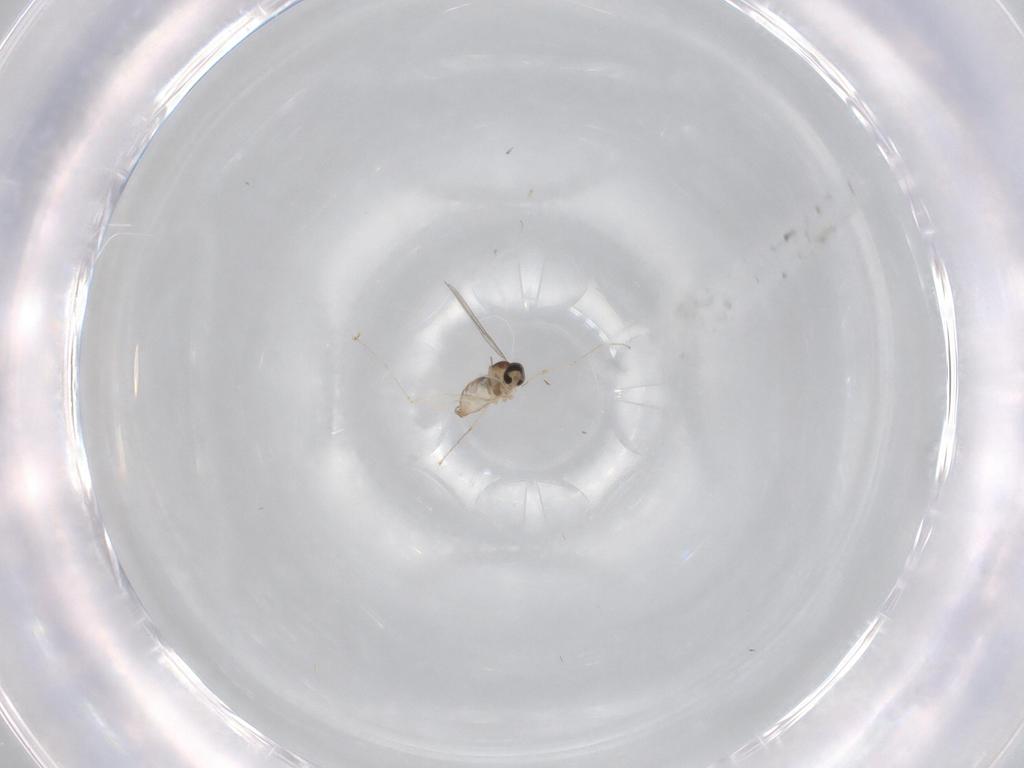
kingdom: Animalia
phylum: Arthropoda
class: Insecta
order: Diptera
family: Cecidomyiidae
